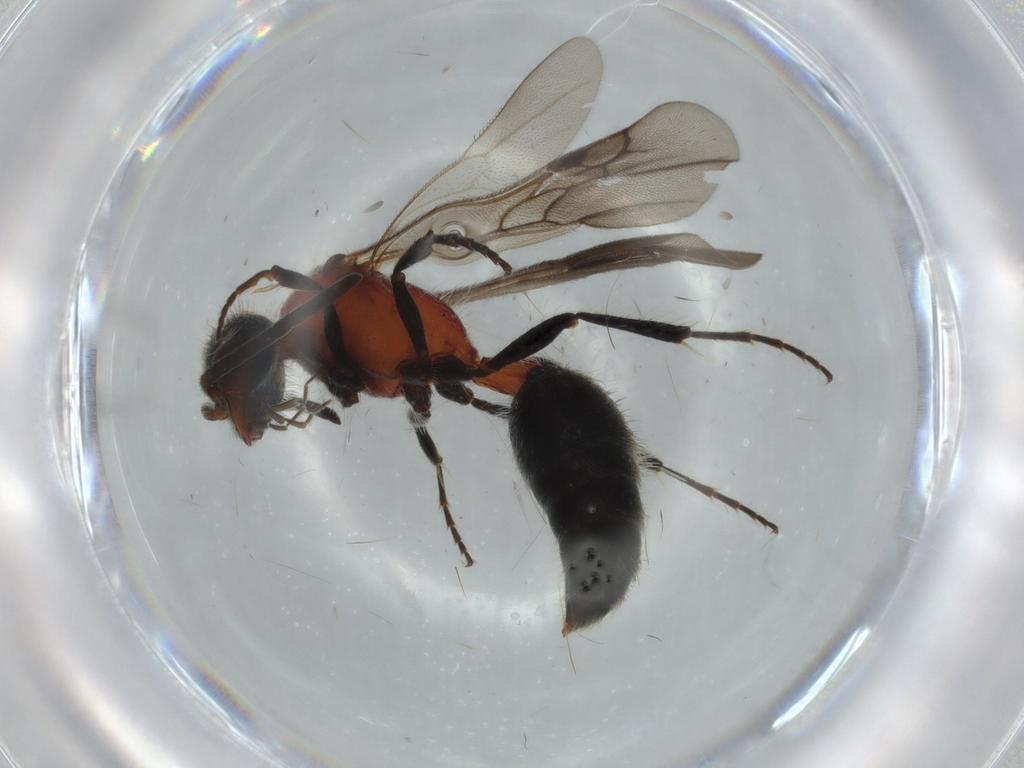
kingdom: Animalia
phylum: Arthropoda
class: Insecta
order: Hymenoptera
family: Mutillidae
